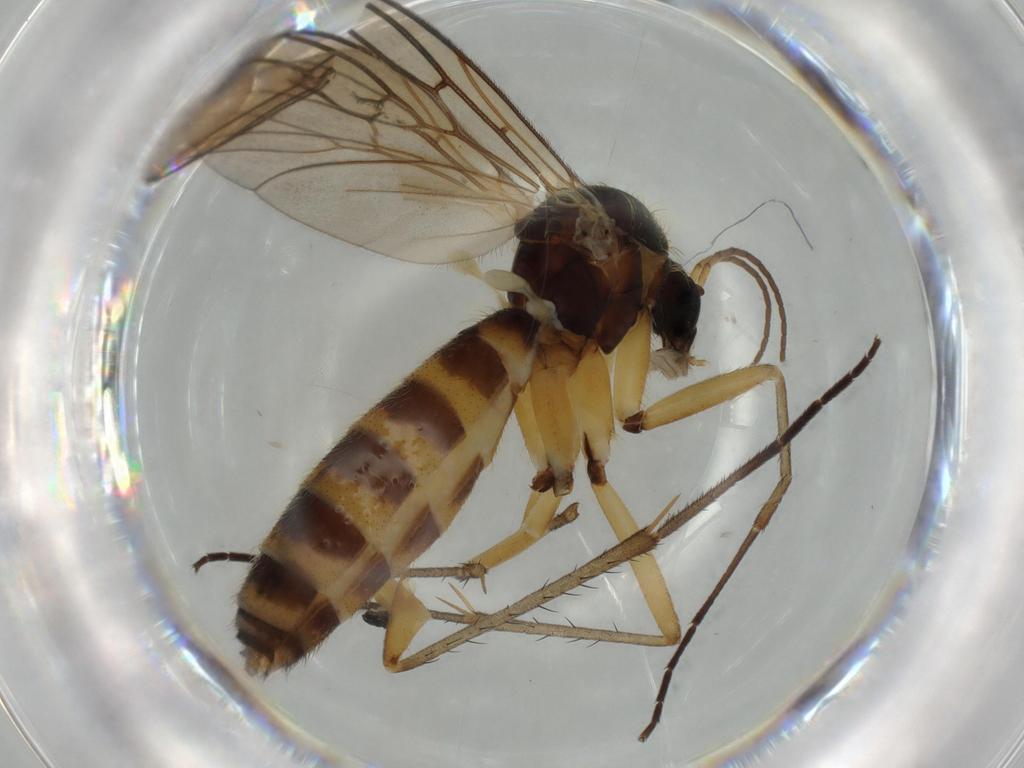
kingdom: Animalia
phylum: Arthropoda
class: Insecta
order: Diptera
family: Ceratopogonidae
